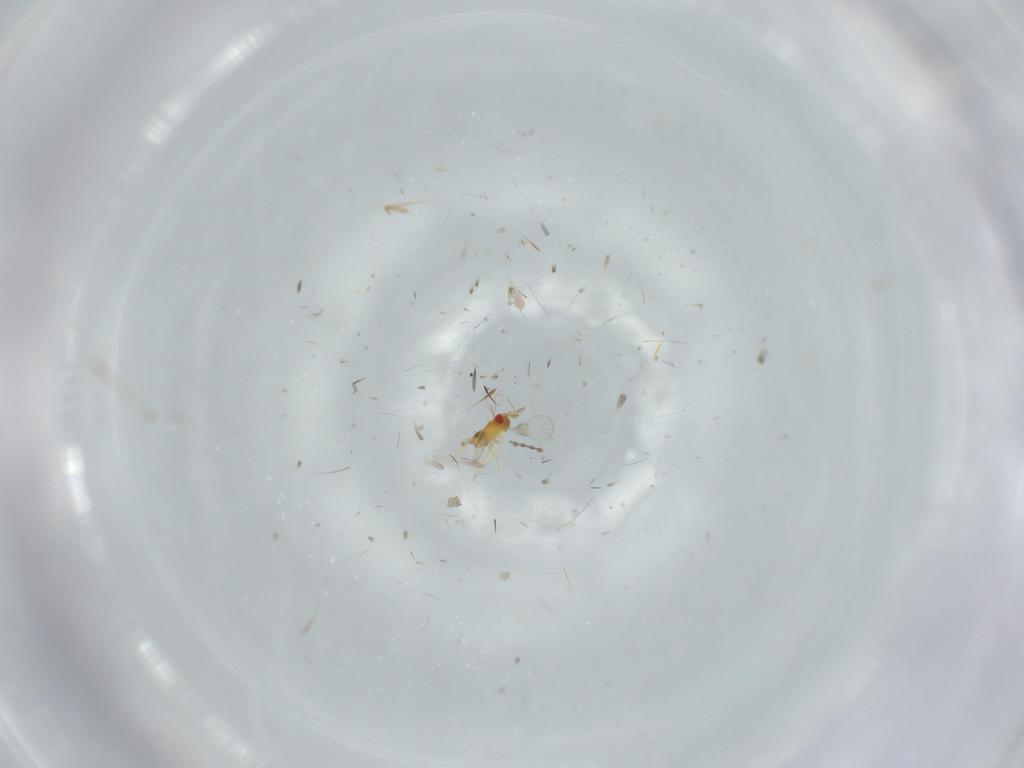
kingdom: Animalia
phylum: Arthropoda
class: Insecta
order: Hymenoptera
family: Trichogrammatidae
